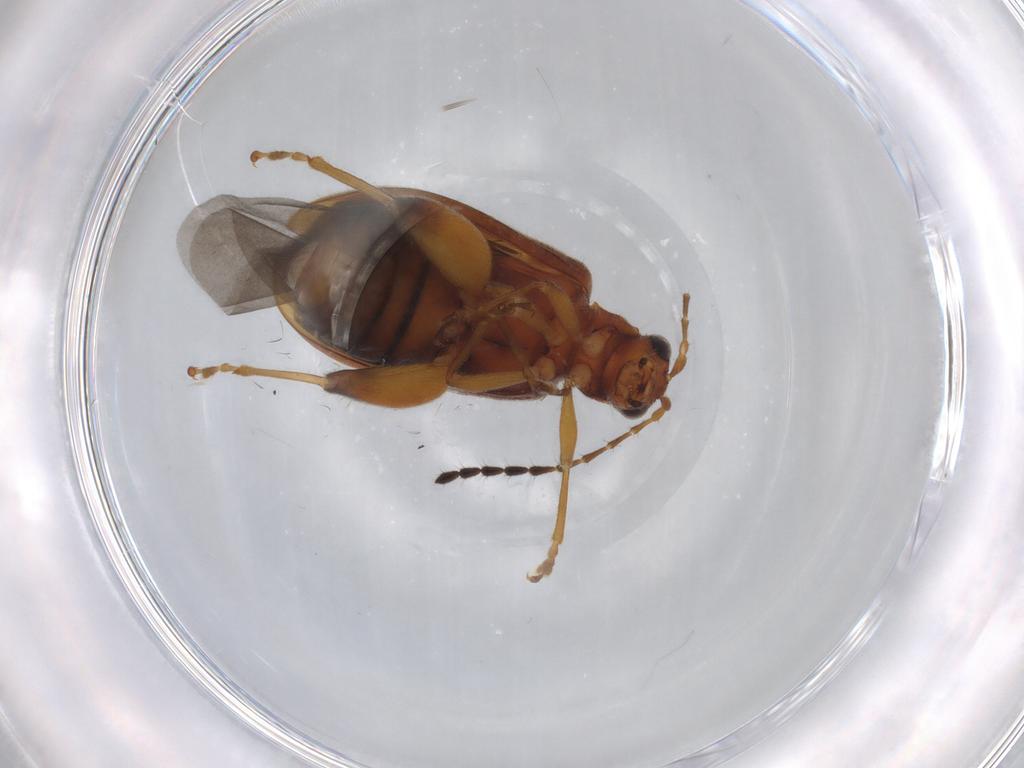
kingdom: Animalia
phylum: Arthropoda
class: Insecta
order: Coleoptera
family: Chrysomelidae
